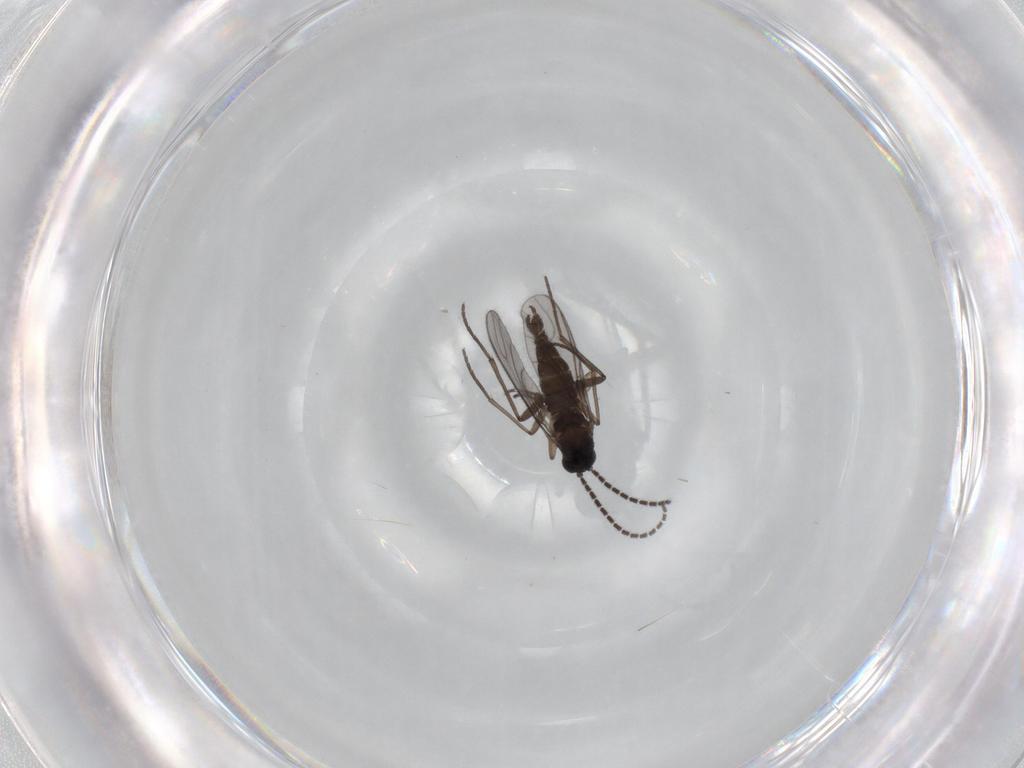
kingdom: Animalia
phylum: Arthropoda
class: Insecta
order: Diptera
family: Sciaridae
